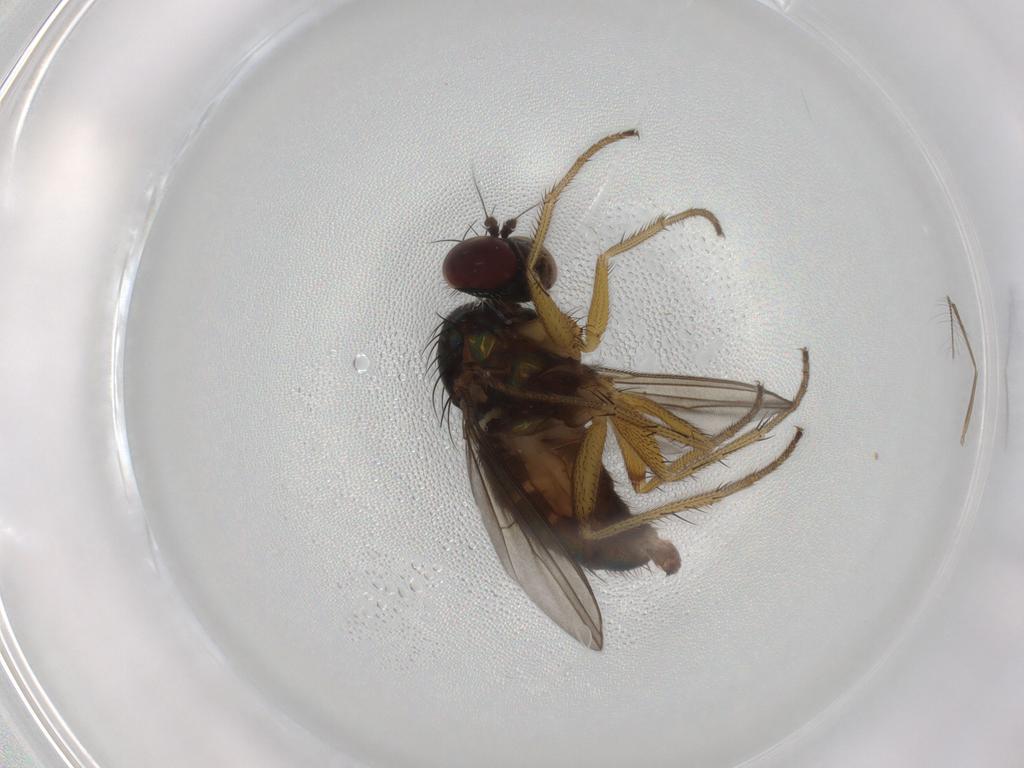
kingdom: Animalia
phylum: Arthropoda
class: Insecta
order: Diptera
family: Dolichopodidae
